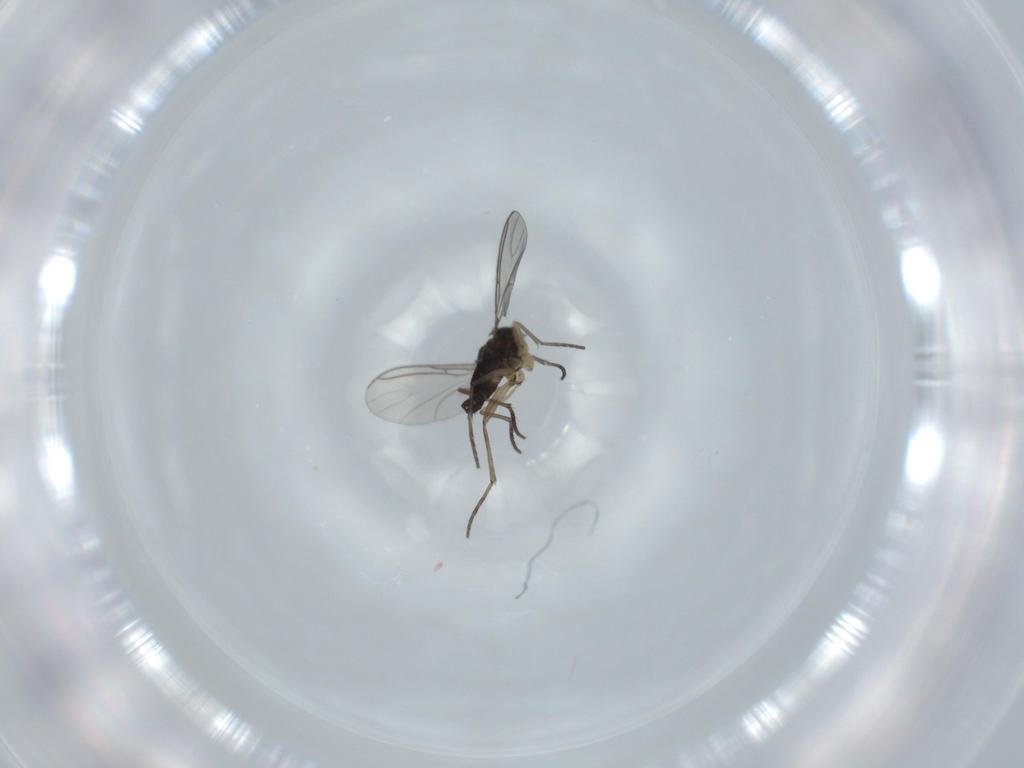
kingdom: Animalia
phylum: Arthropoda
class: Insecta
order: Diptera
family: Sciaridae
